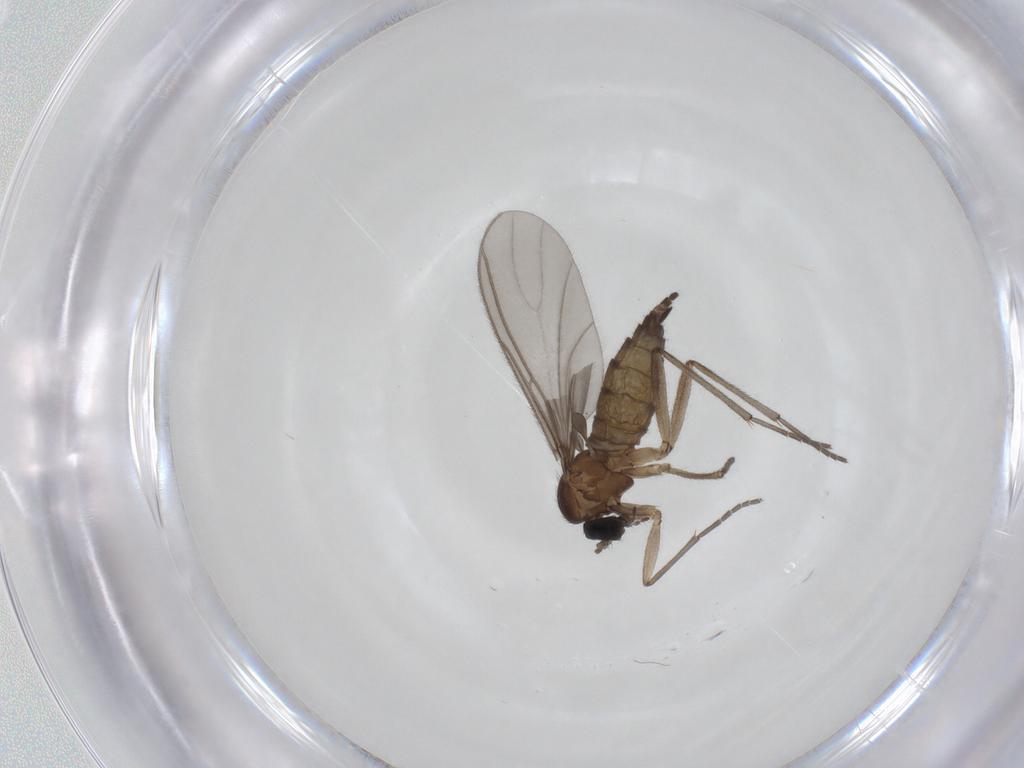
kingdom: Animalia
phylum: Arthropoda
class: Insecta
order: Diptera
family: Sciaridae
